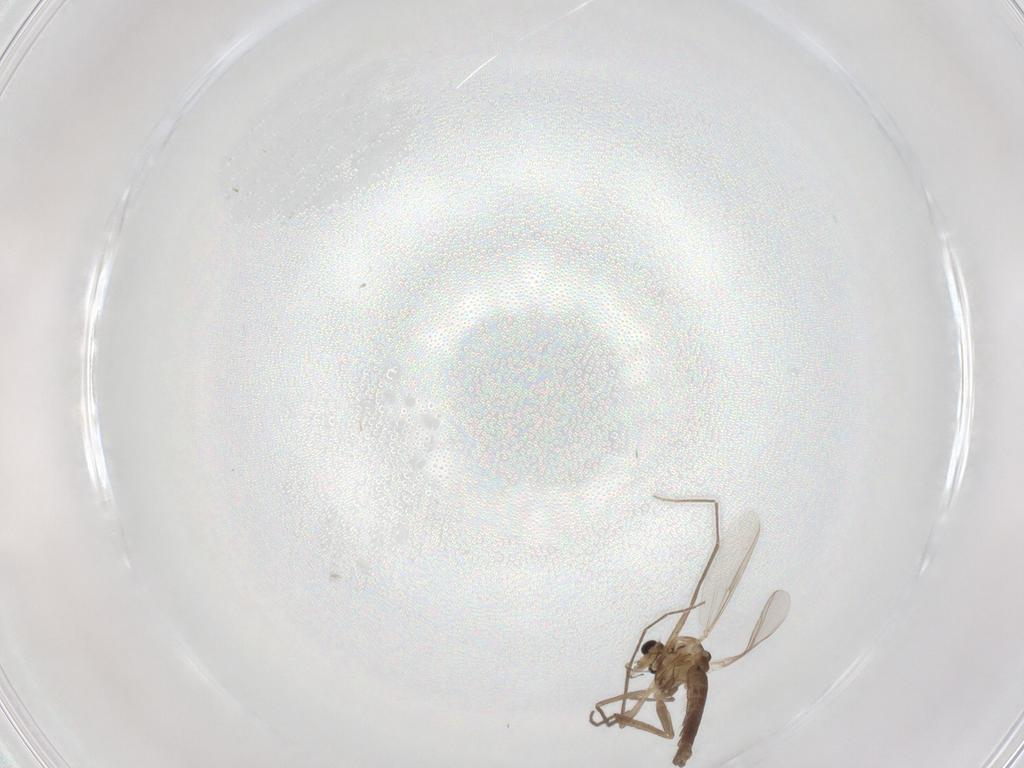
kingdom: Animalia
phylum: Arthropoda
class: Insecta
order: Diptera
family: Chironomidae
